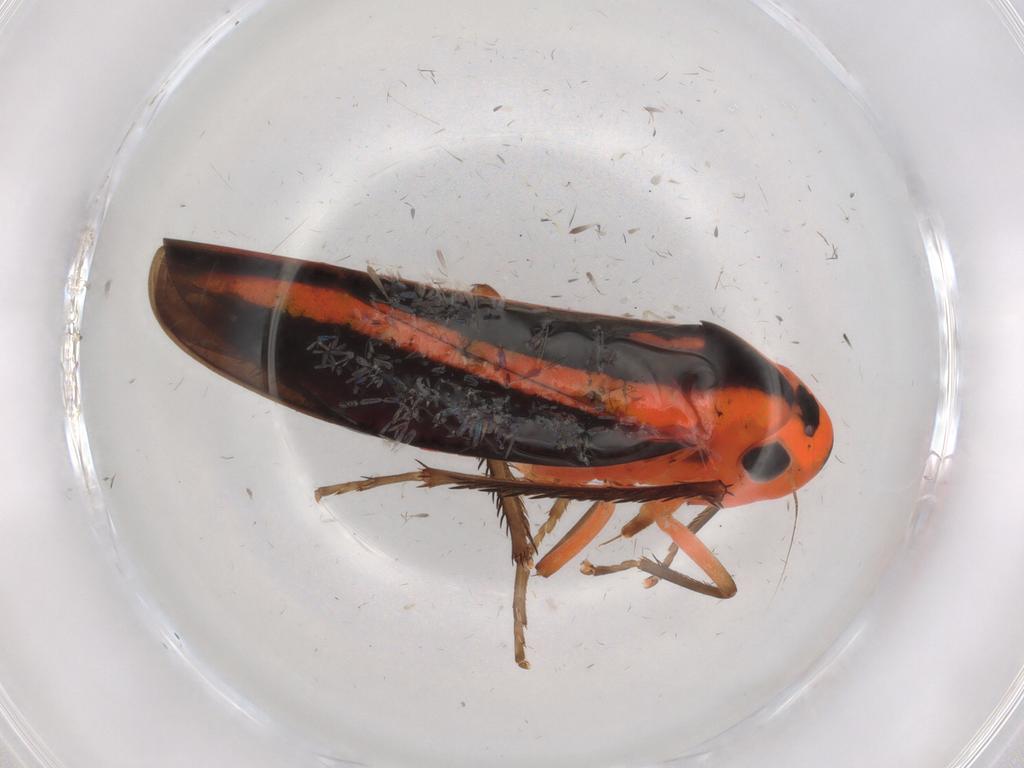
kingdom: Animalia
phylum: Arthropoda
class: Insecta
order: Hemiptera
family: Cicadellidae
